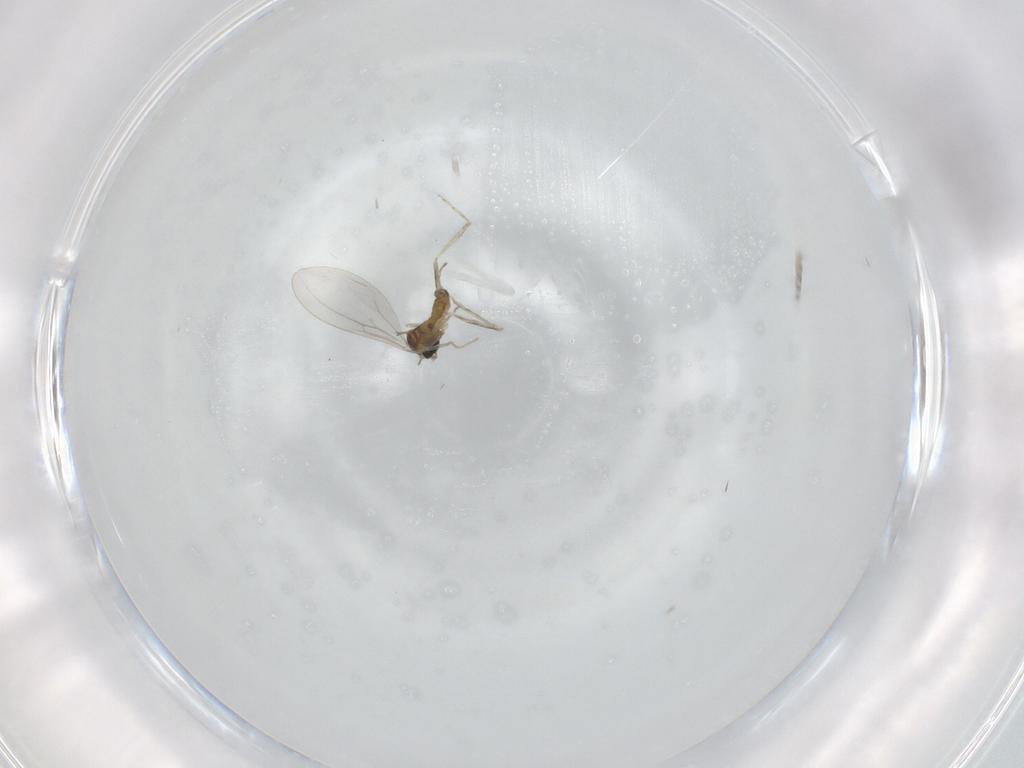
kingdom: Animalia
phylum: Arthropoda
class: Insecta
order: Diptera
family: Cecidomyiidae
